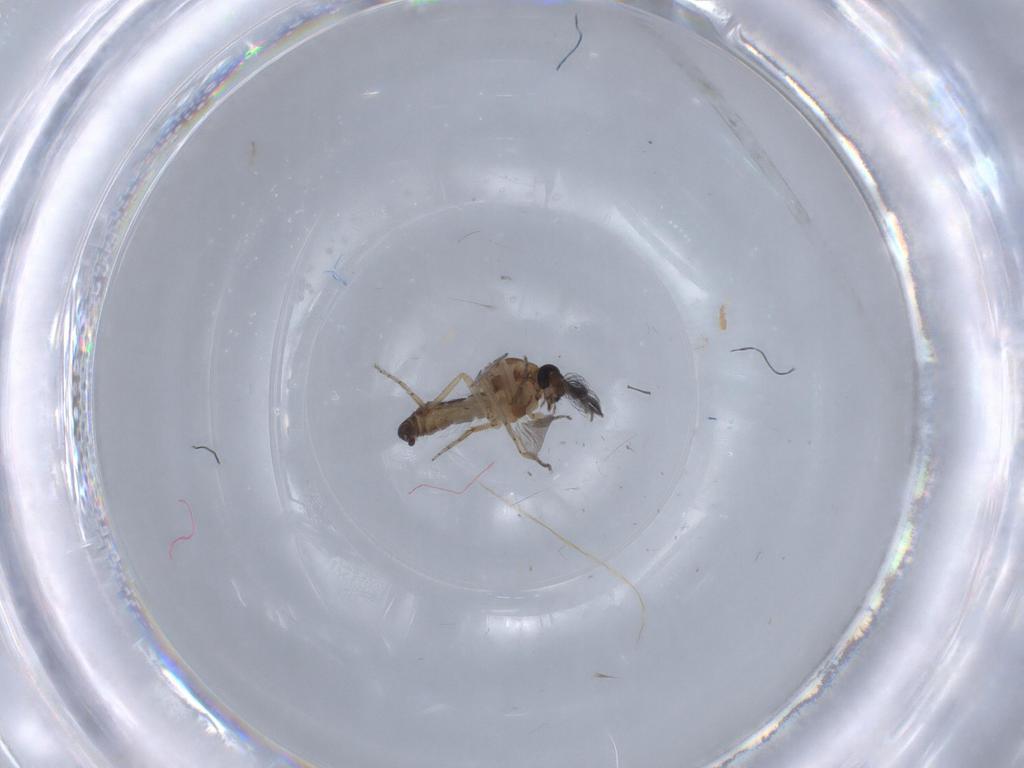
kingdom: Animalia
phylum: Arthropoda
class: Insecta
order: Diptera
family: Ceratopogonidae
